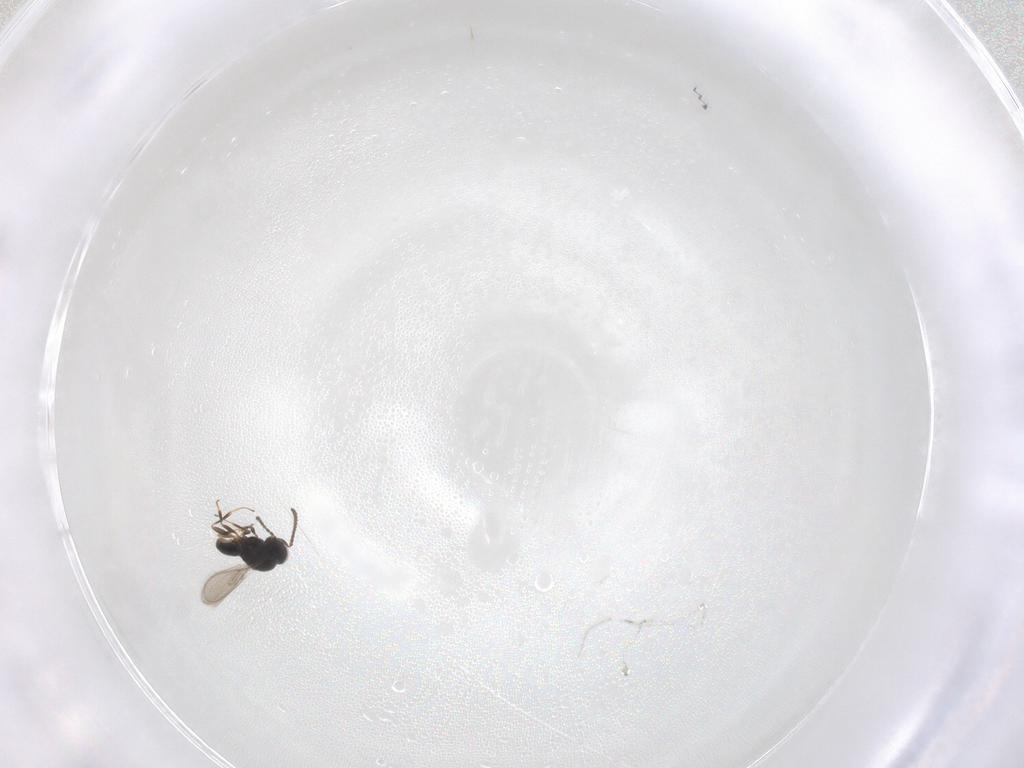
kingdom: Animalia
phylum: Arthropoda
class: Insecta
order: Hymenoptera
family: Scelionidae
